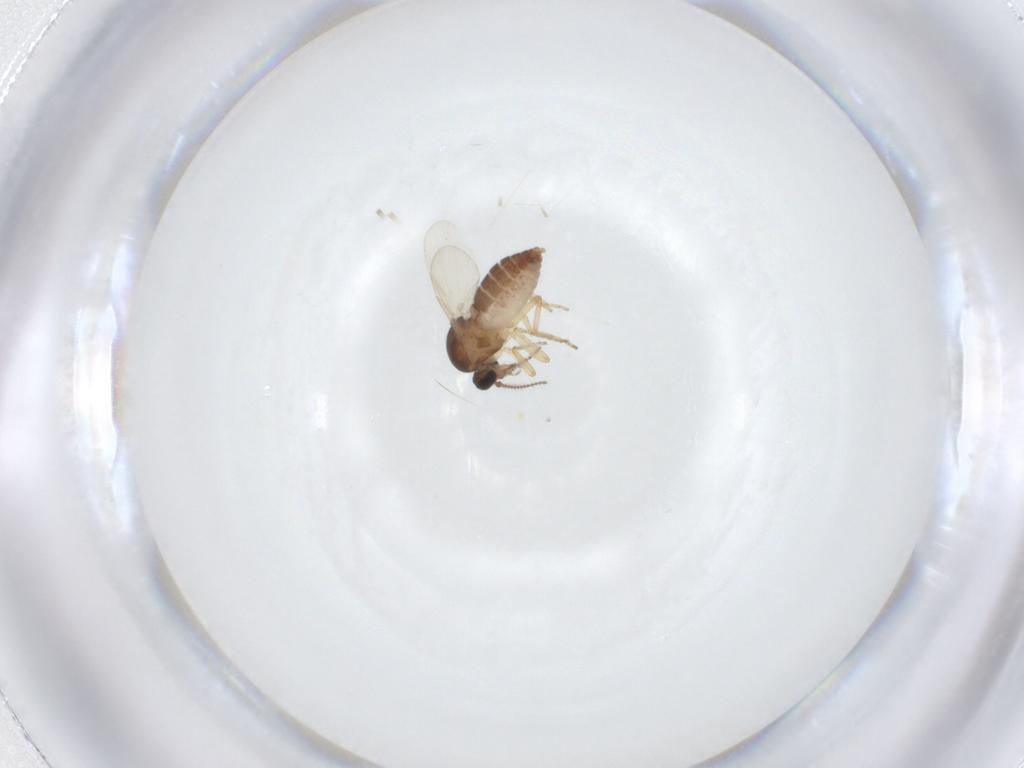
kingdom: Animalia
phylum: Arthropoda
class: Insecta
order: Diptera
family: Ceratopogonidae
